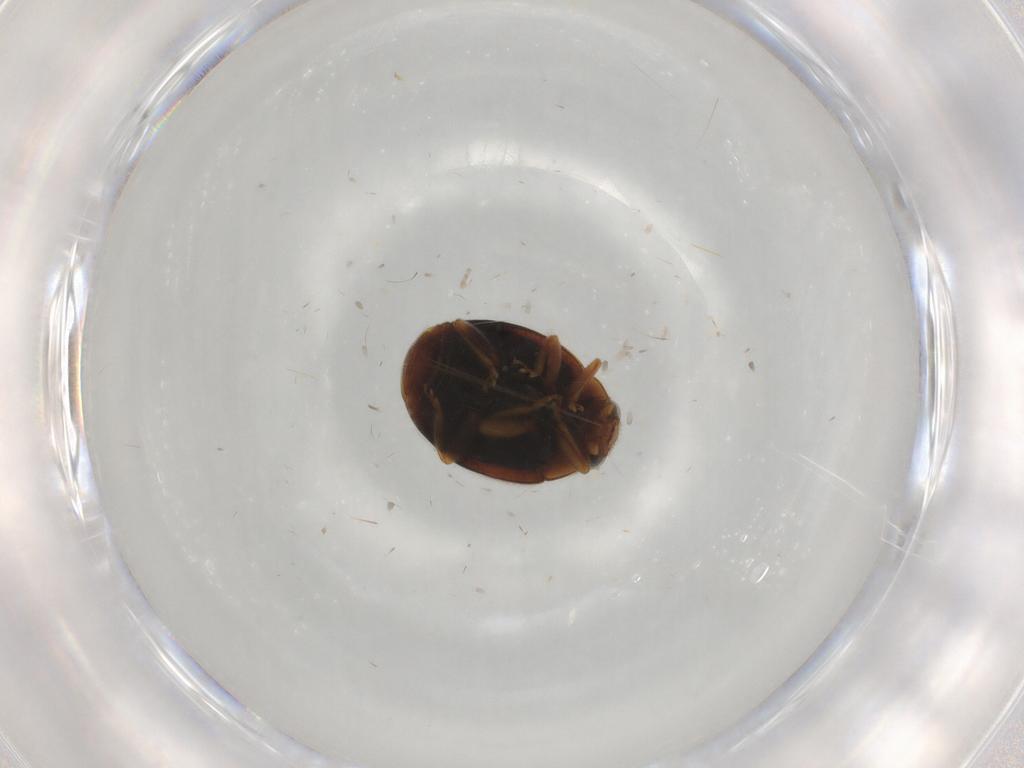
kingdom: Animalia
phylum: Arthropoda
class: Insecta
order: Coleoptera
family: Coccinellidae
